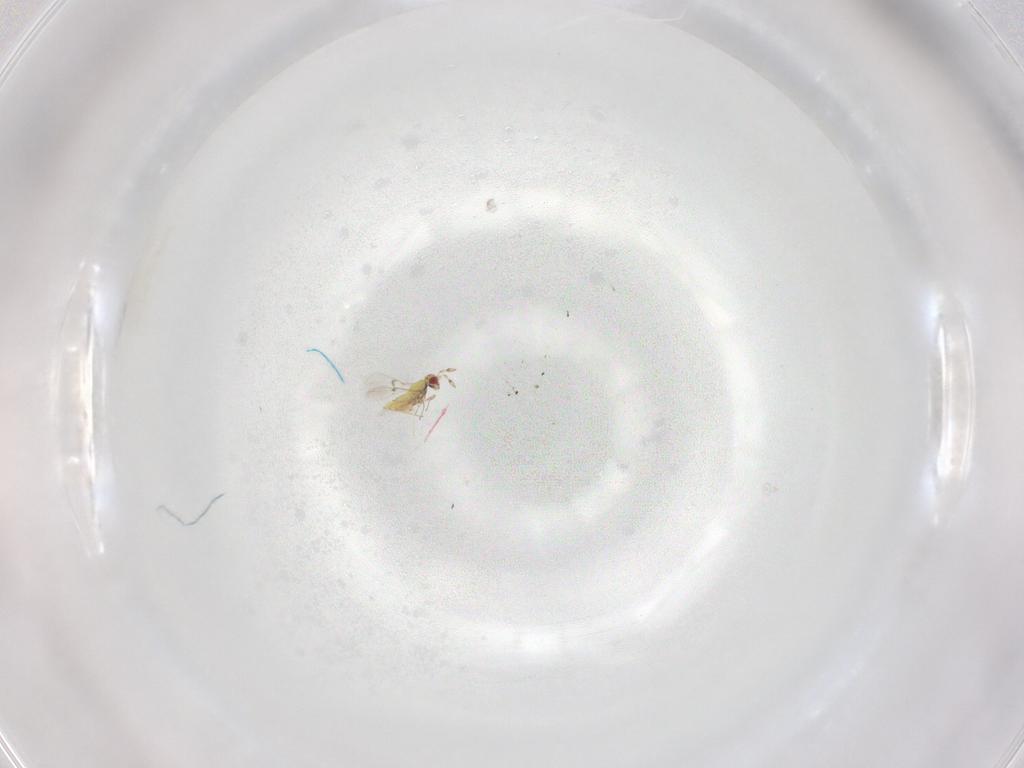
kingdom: Animalia
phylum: Arthropoda
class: Insecta
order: Hymenoptera
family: Trichogrammatidae
